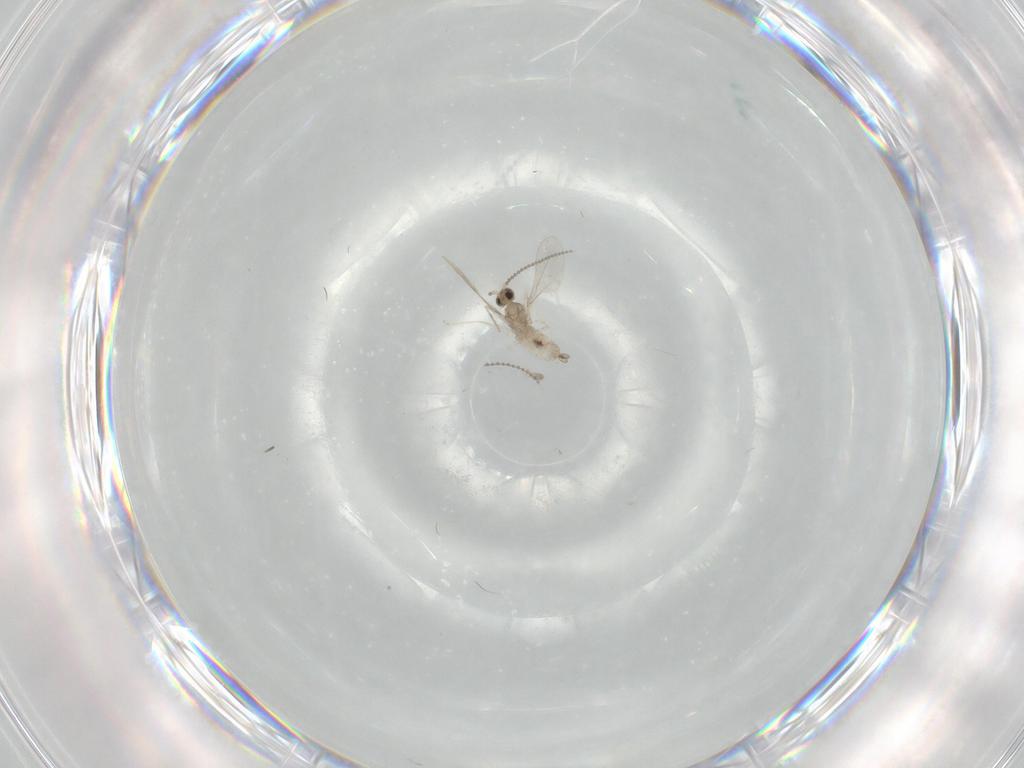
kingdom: Animalia
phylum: Arthropoda
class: Insecta
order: Diptera
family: Cecidomyiidae
